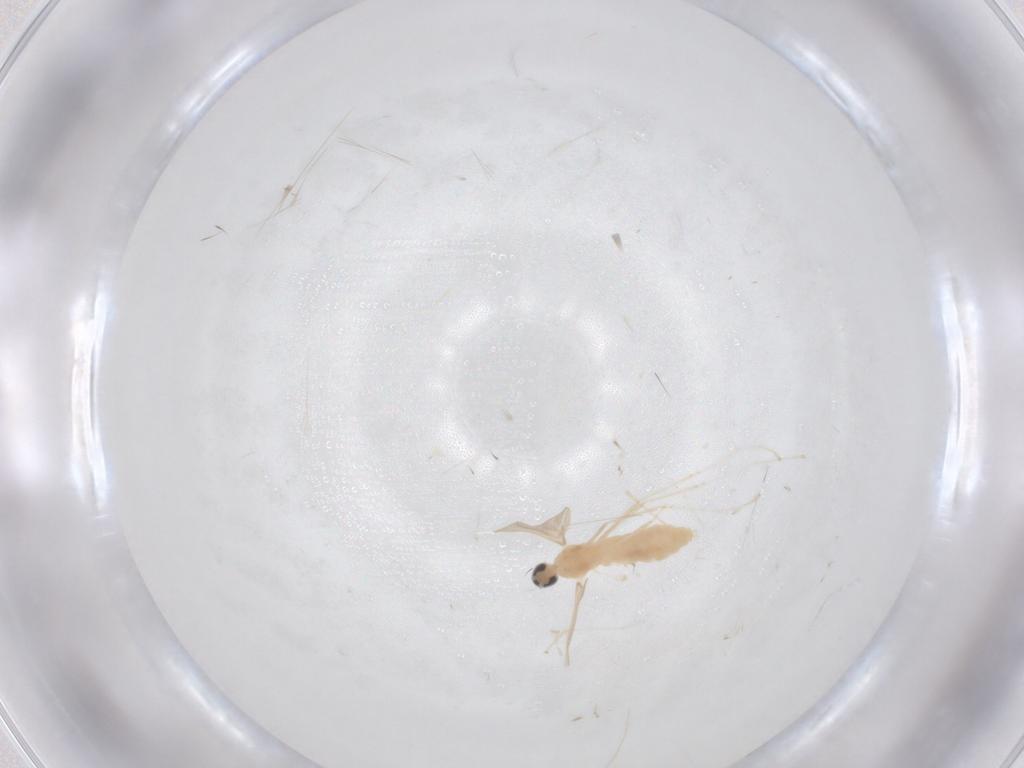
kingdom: Animalia
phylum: Arthropoda
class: Insecta
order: Diptera
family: Cecidomyiidae
